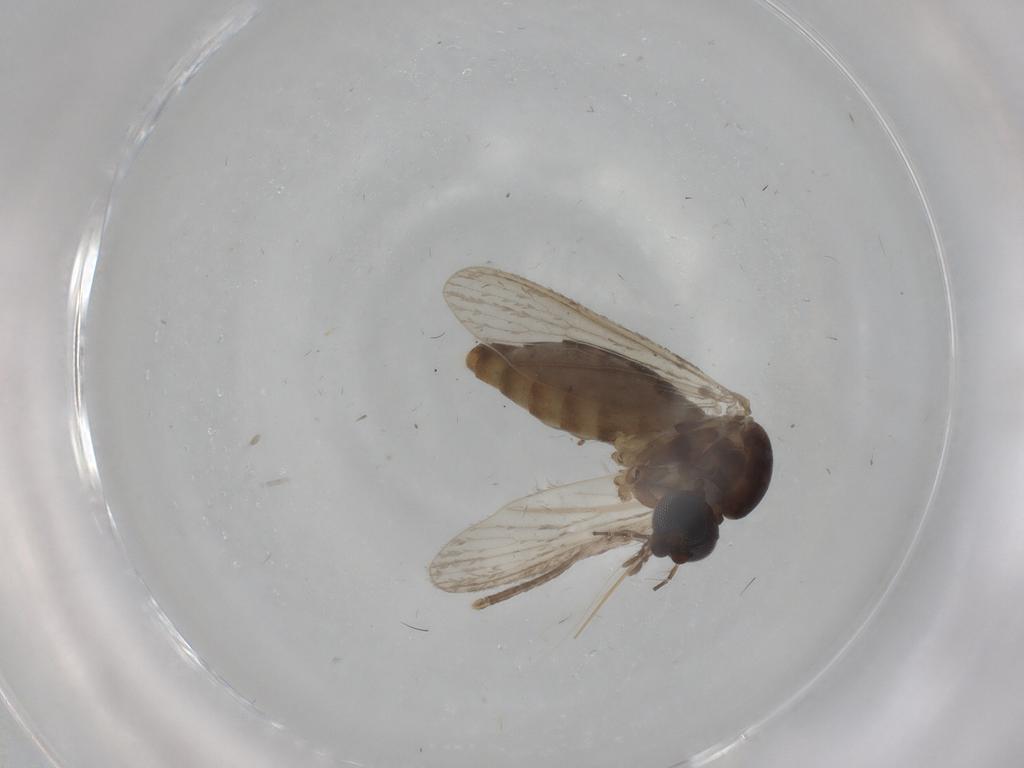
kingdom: Animalia
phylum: Arthropoda
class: Insecta
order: Diptera
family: Cecidomyiidae
